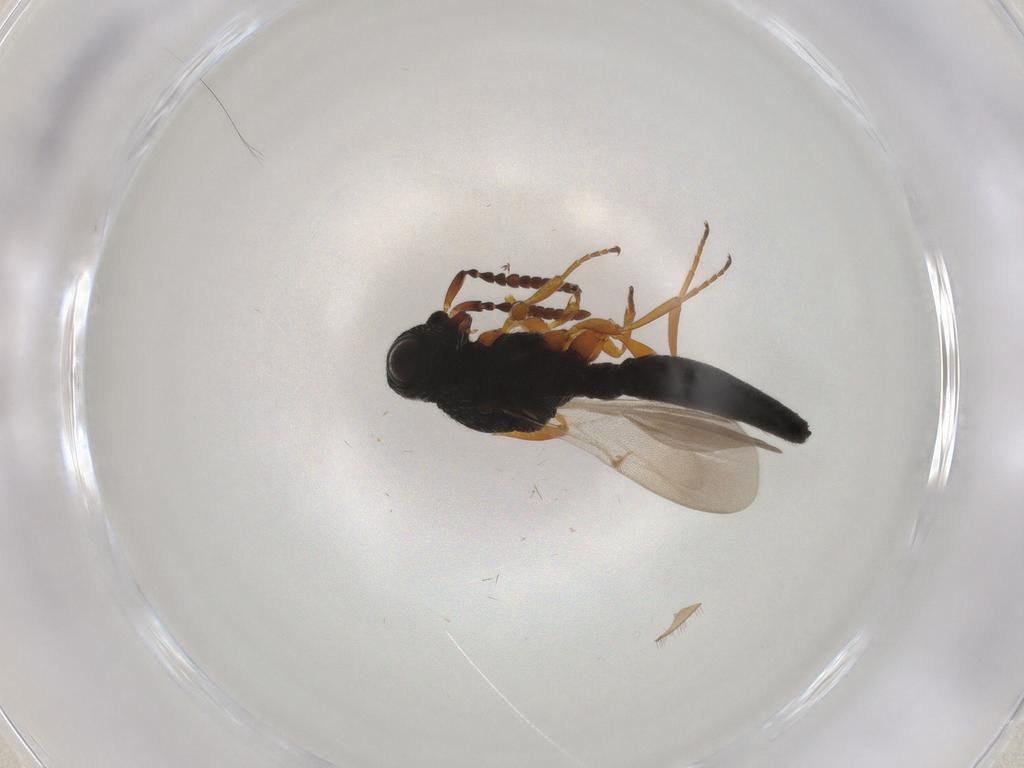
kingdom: Animalia
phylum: Arthropoda
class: Insecta
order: Hymenoptera
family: Scelionidae
